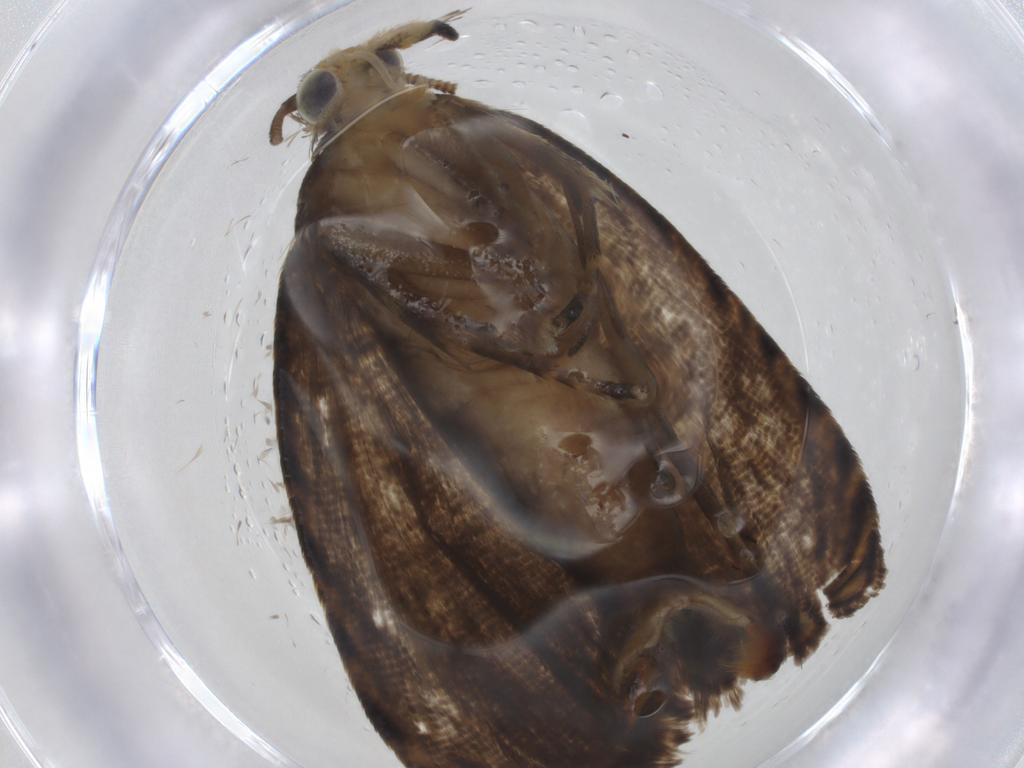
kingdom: Animalia
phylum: Arthropoda
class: Insecta
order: Lepidoptera
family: Tortricidae
